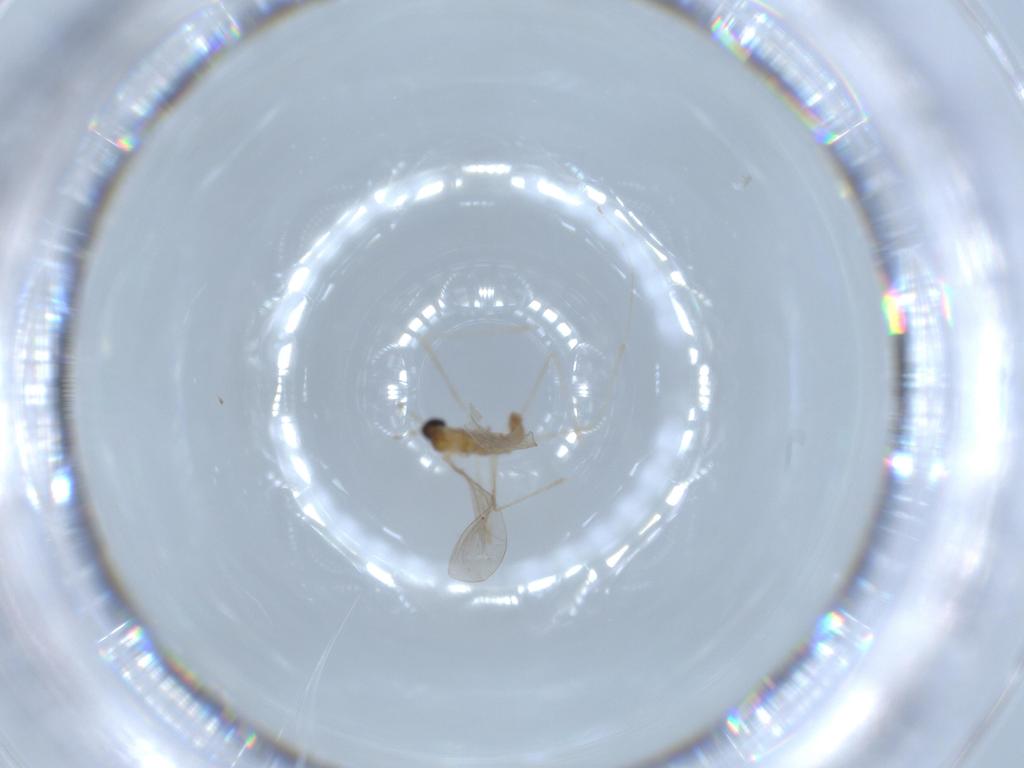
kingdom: Animalia
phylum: Arthropoda
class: Insecta
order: Diptera
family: Cecidomyiidae
